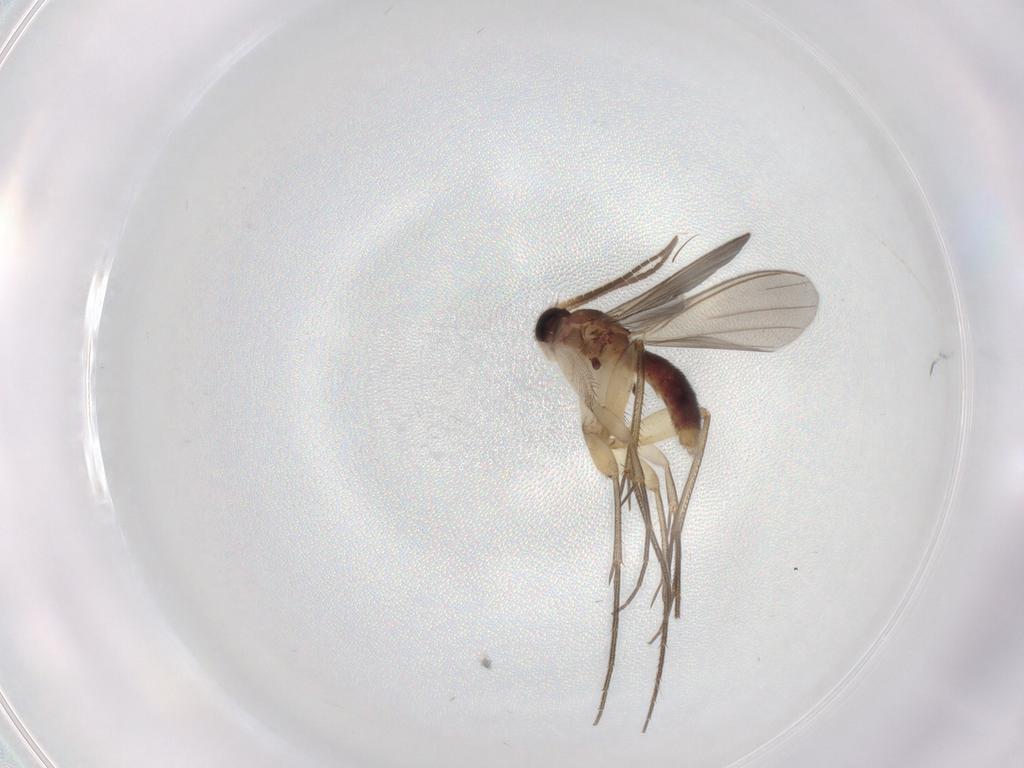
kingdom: Animalia
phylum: Arthropoda
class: Insecta
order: Diptera
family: Mycetophilidae
